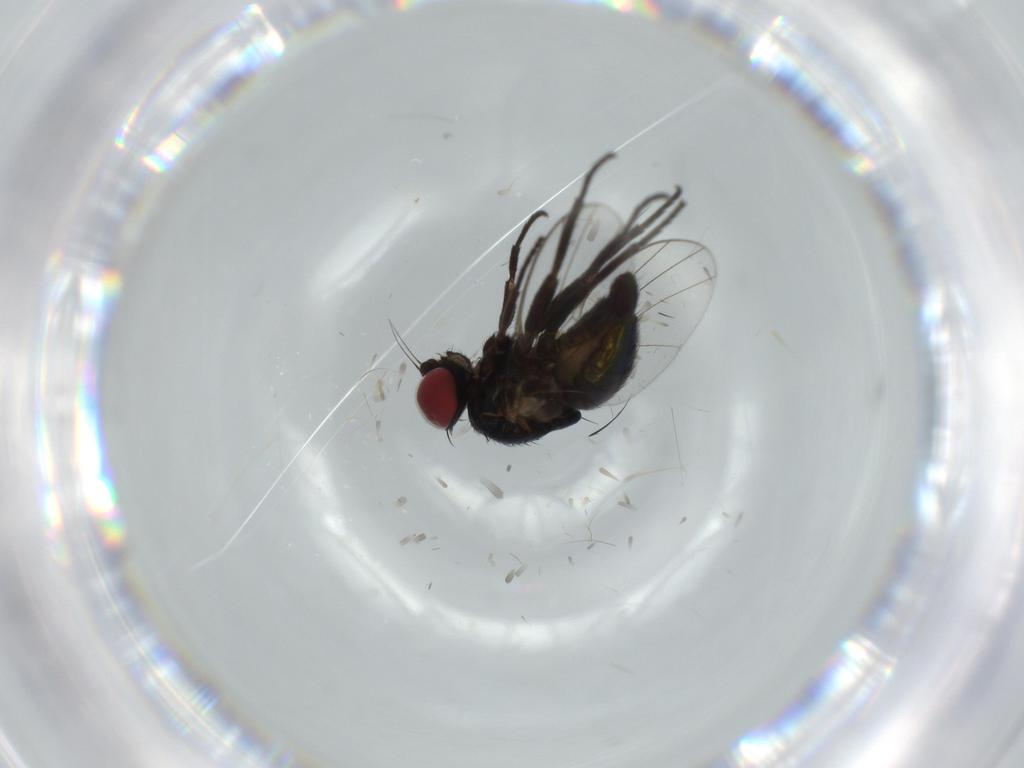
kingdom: Animalia
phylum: Arthropoda
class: Insecta
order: Diptera
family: Agromyzidae
